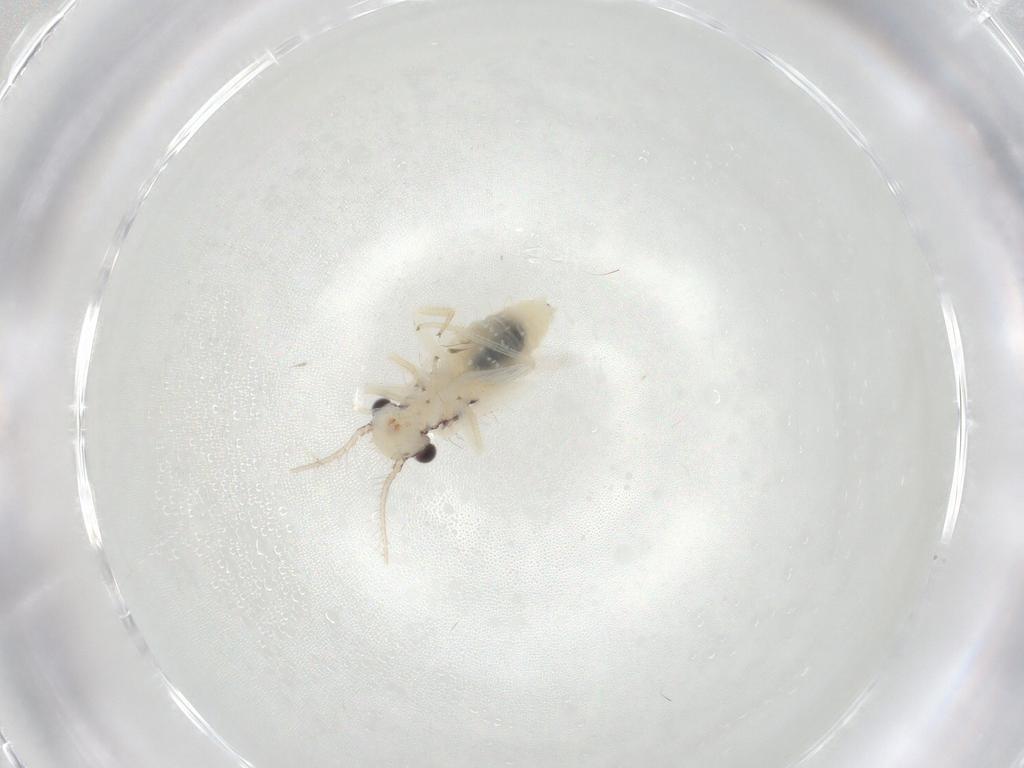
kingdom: Animalia
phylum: Arthropoda
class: Insecta
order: Psocodea
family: Philotarsidae
